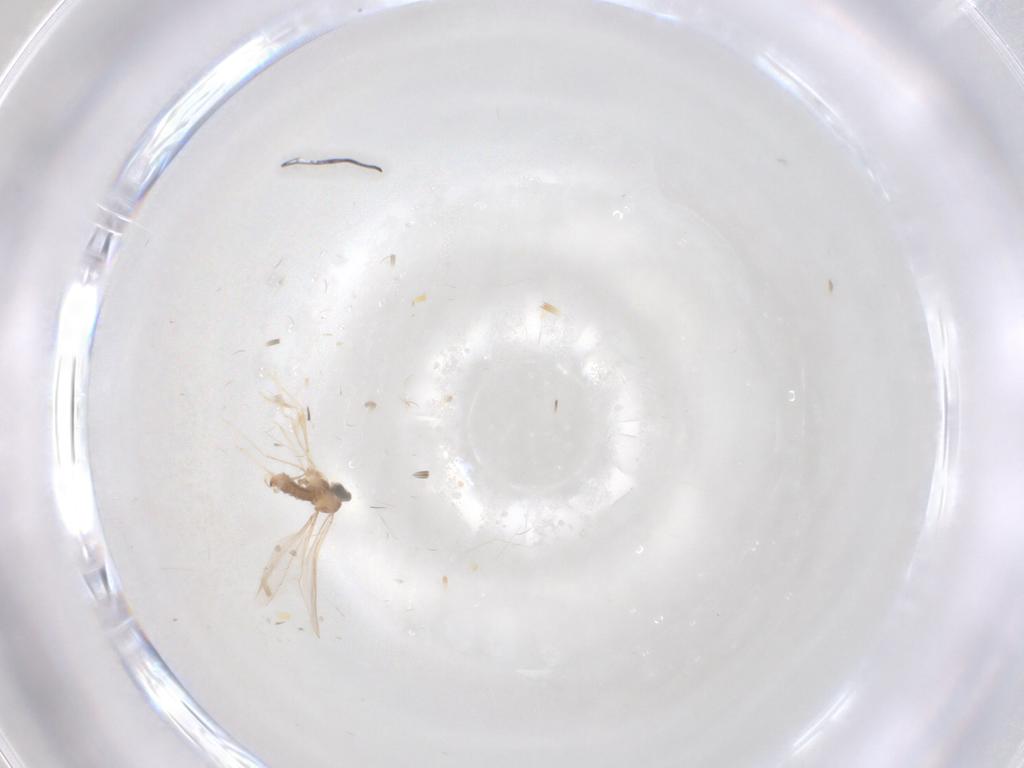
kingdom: Animalia
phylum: Arthropoda
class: Insecta
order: Diptera
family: Cecidomyiidae
